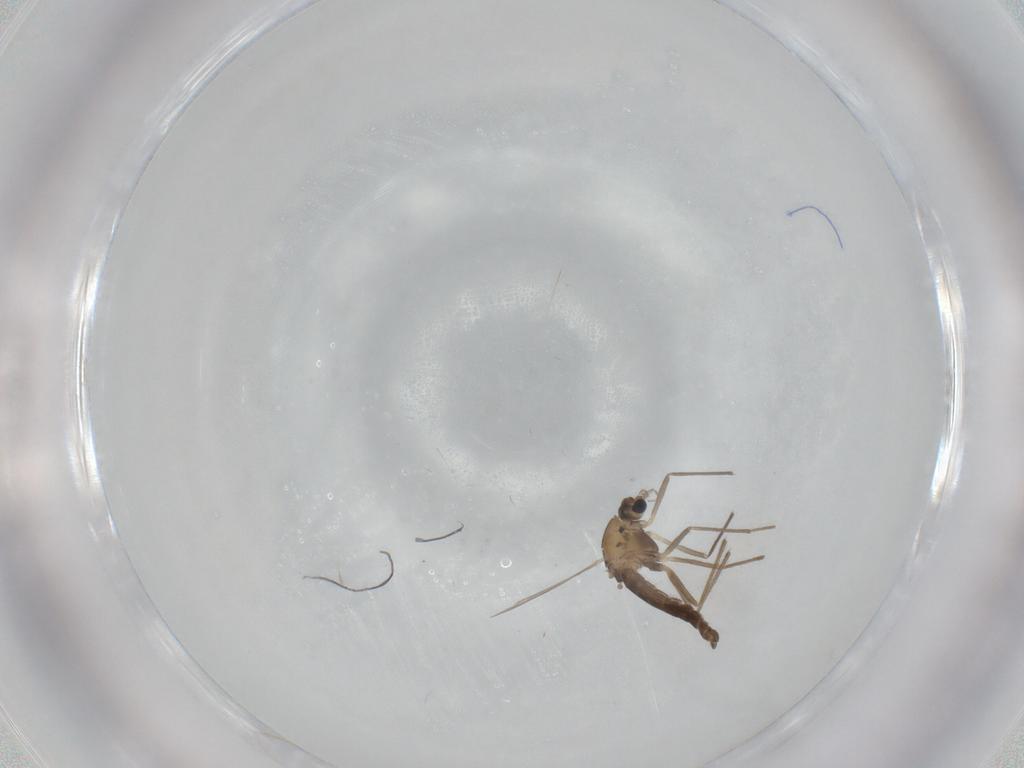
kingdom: Animalia
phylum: Arthropoda
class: Insecta
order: Diptera
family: Chironomidae
